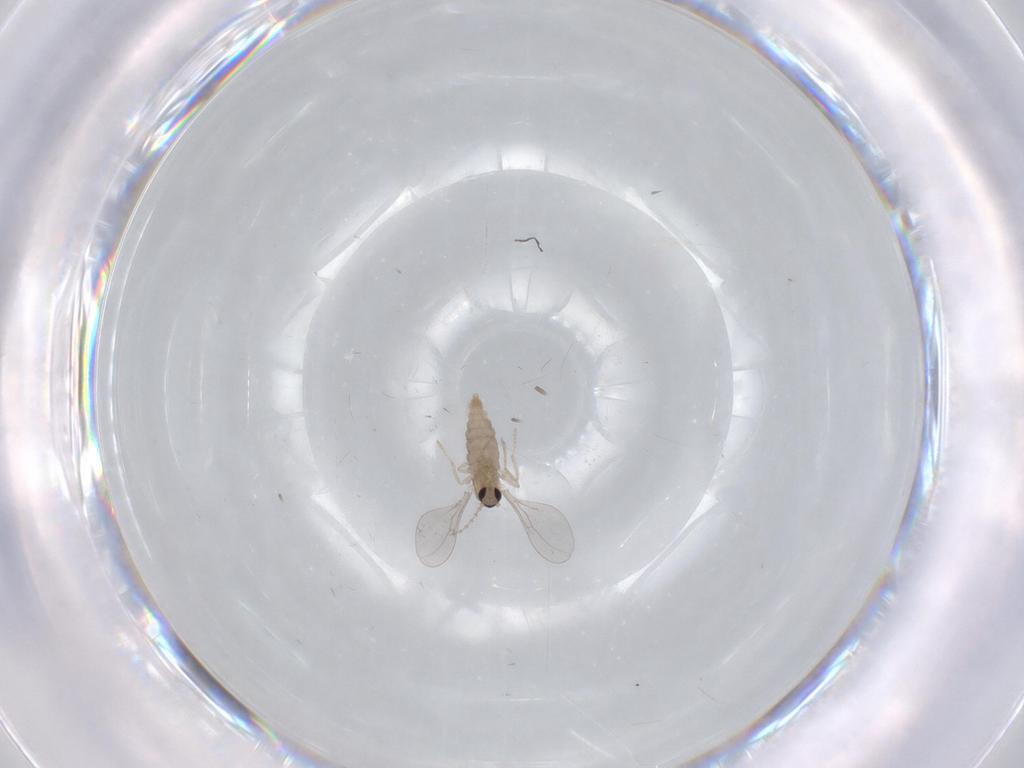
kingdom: Animalia
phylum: Arthropoda
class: Insecta
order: Diptera
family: Cecidomyiidae
